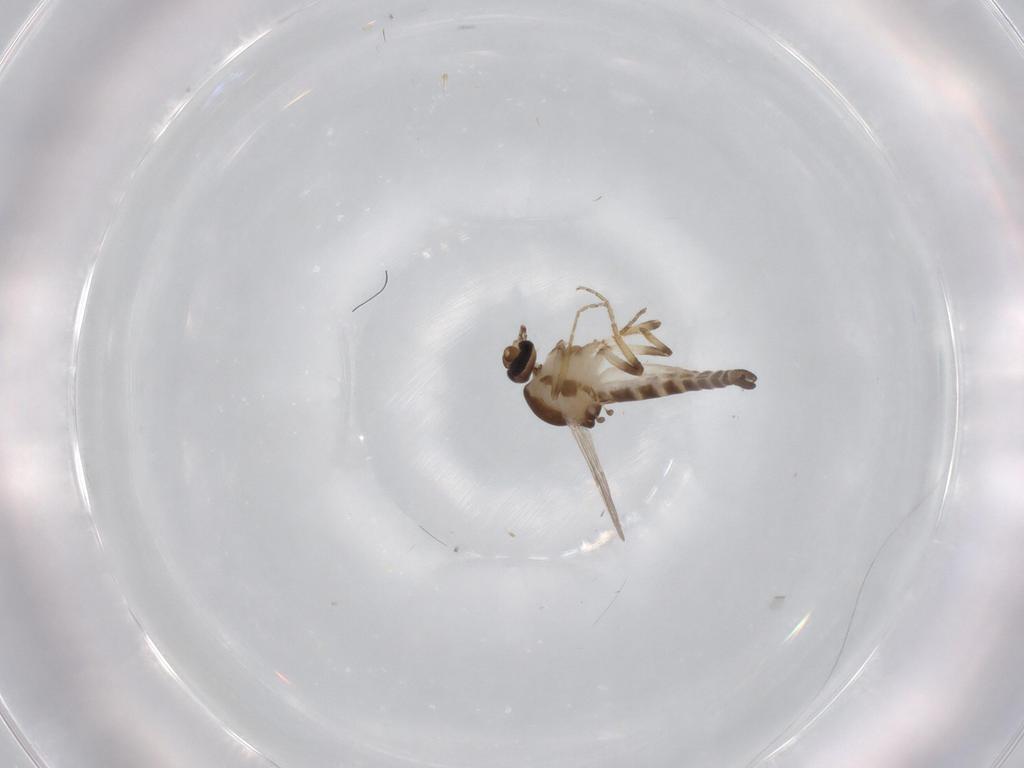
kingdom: Animalia
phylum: Arthropoda
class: Insecta
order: Diptera
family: Ceratopogonidae
